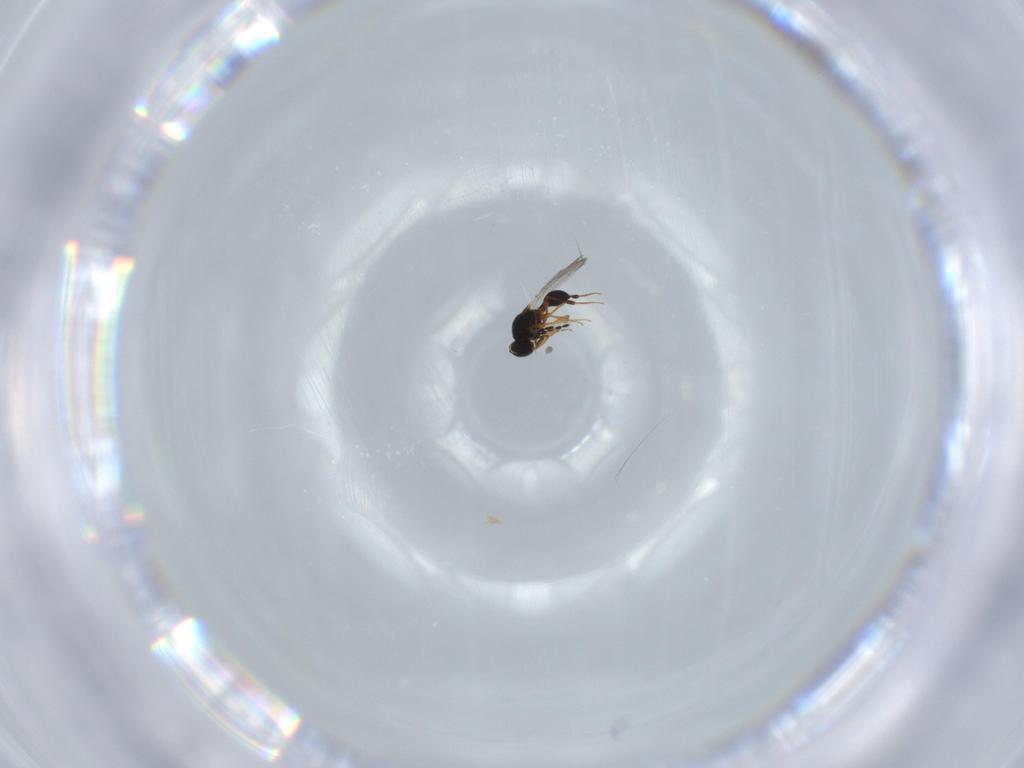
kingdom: Animalia
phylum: Arthropoda
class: Insecta
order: Hymenoptera
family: Platygastridae
